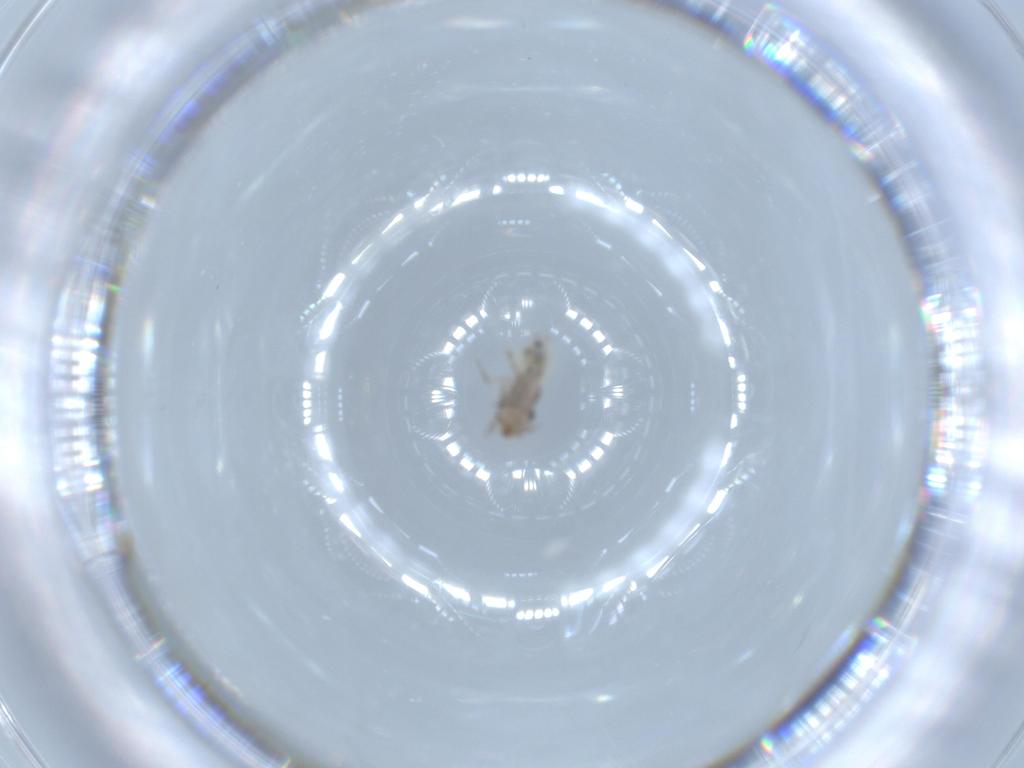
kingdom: Animalia
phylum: Arthropoda
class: Insecta
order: Psocodea
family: Lepidopsocidae
